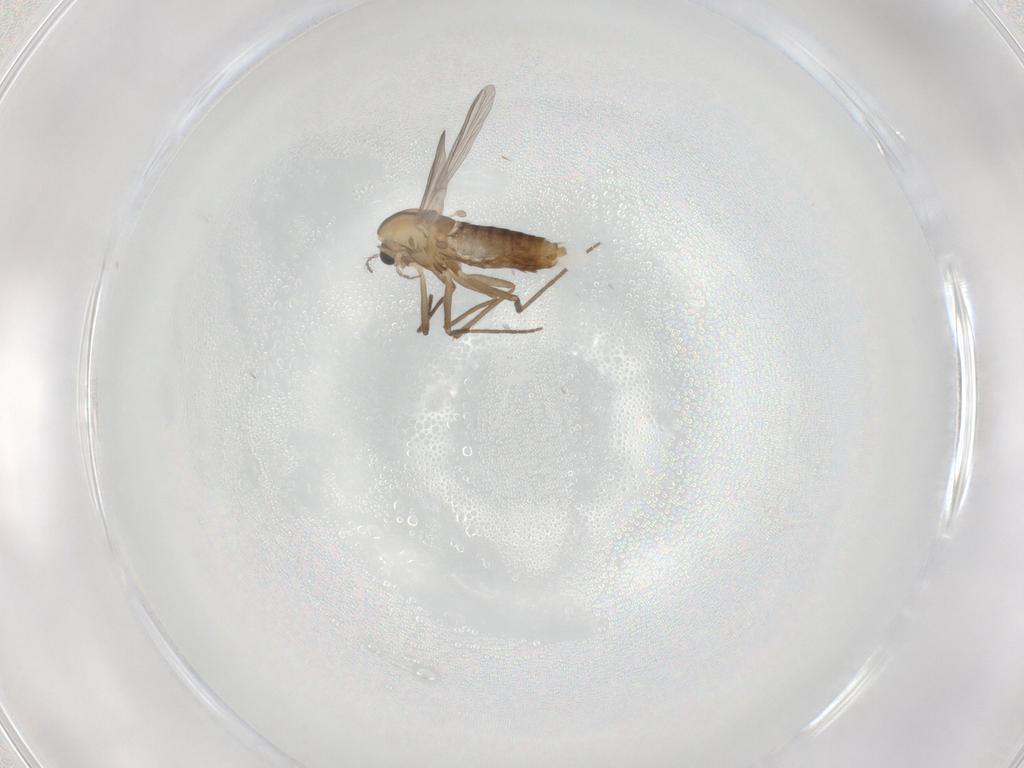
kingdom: Animalia
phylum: Arthropoda
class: Insecta
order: Diptera
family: Chironomidae
